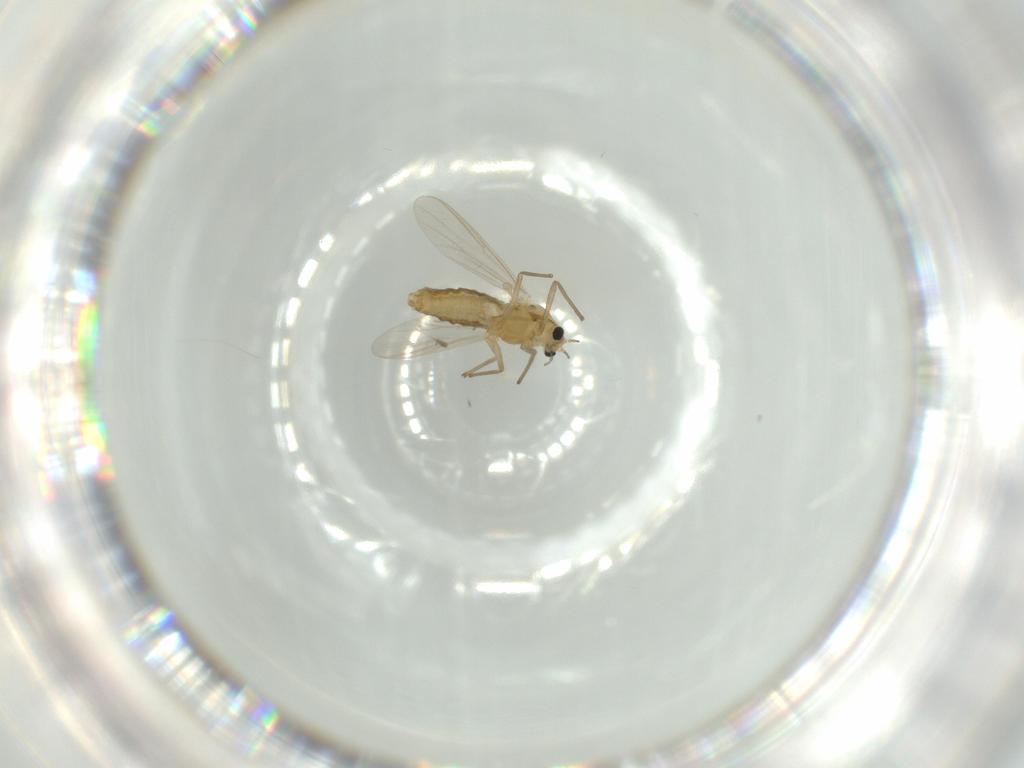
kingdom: Animalia
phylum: Arthropoda
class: Insecta
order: Diptera
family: Chironomidae
